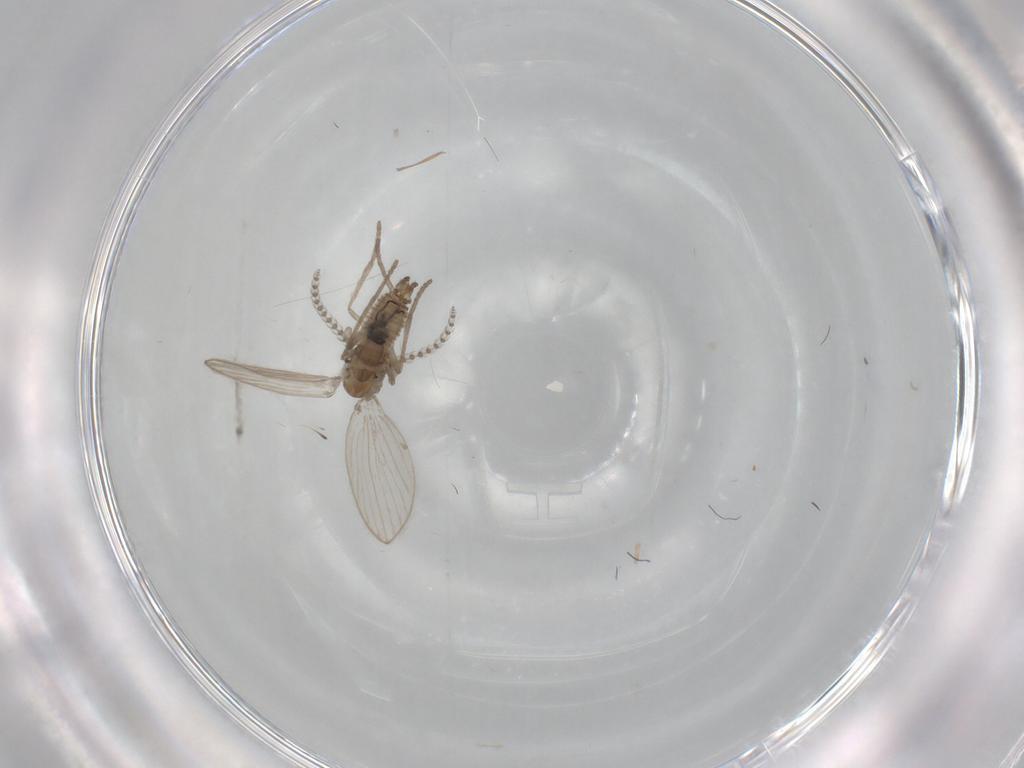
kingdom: Animalia
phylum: Arthropoda
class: Insecta
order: Diptera
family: Psychodidae
